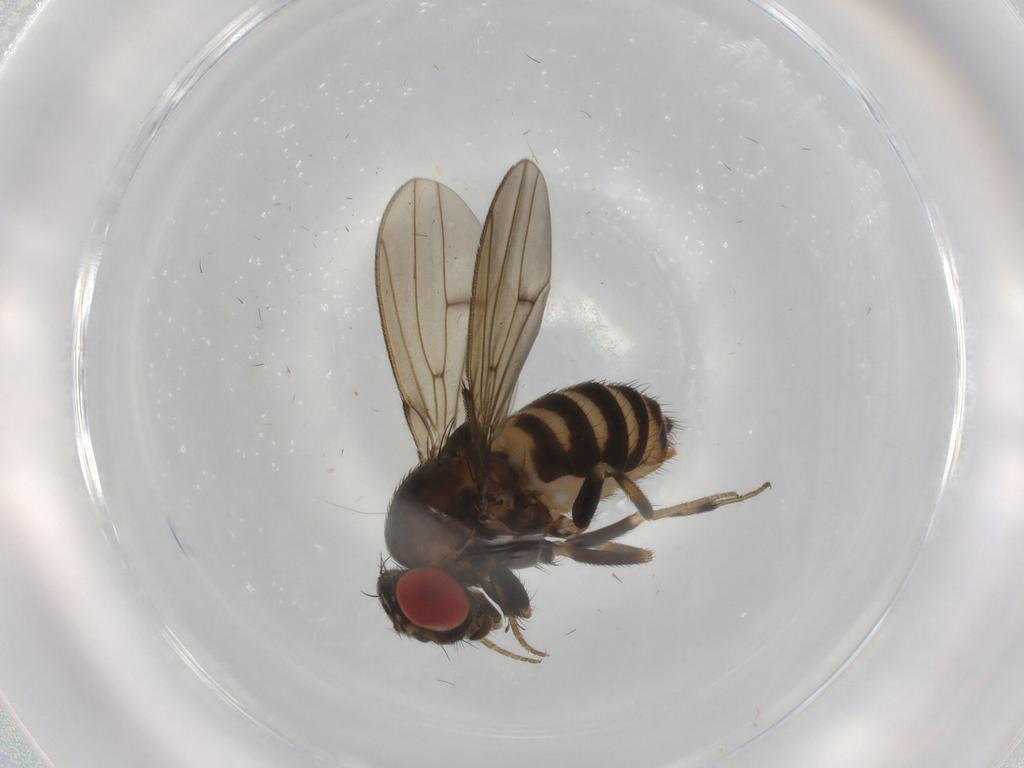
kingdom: Animalia
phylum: Arthropoda
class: Insecta
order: Diptera
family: Drosophilidae
